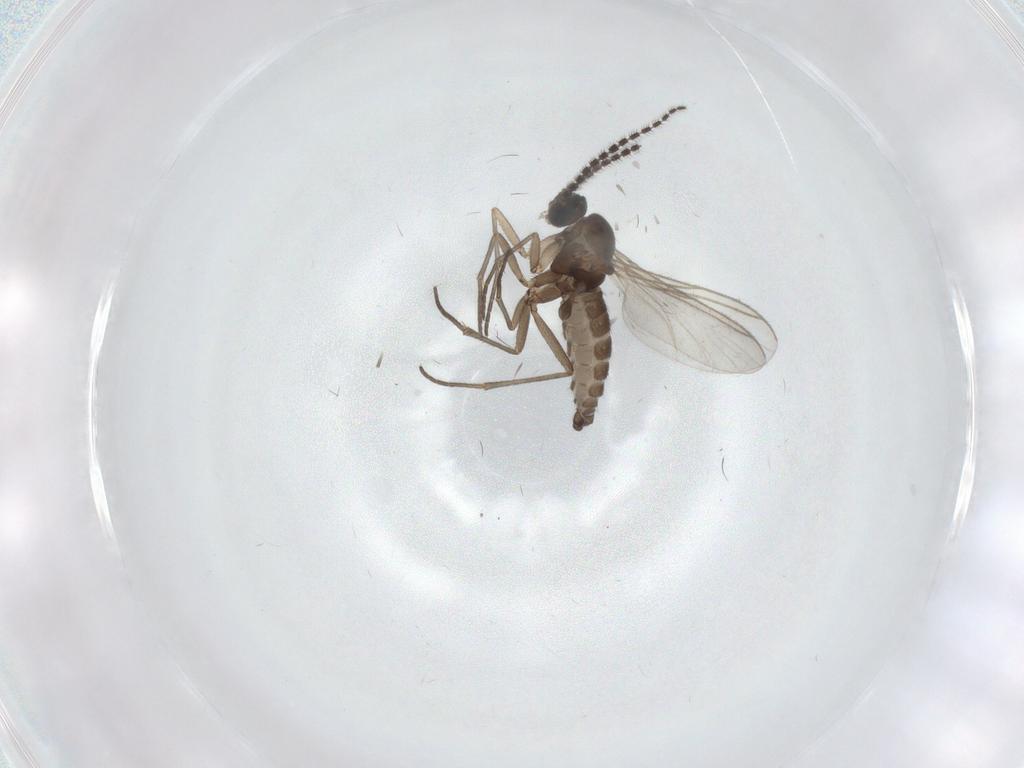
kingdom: Animalia
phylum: Arthropoda
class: Insecta
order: Diptera
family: Sciaridae
